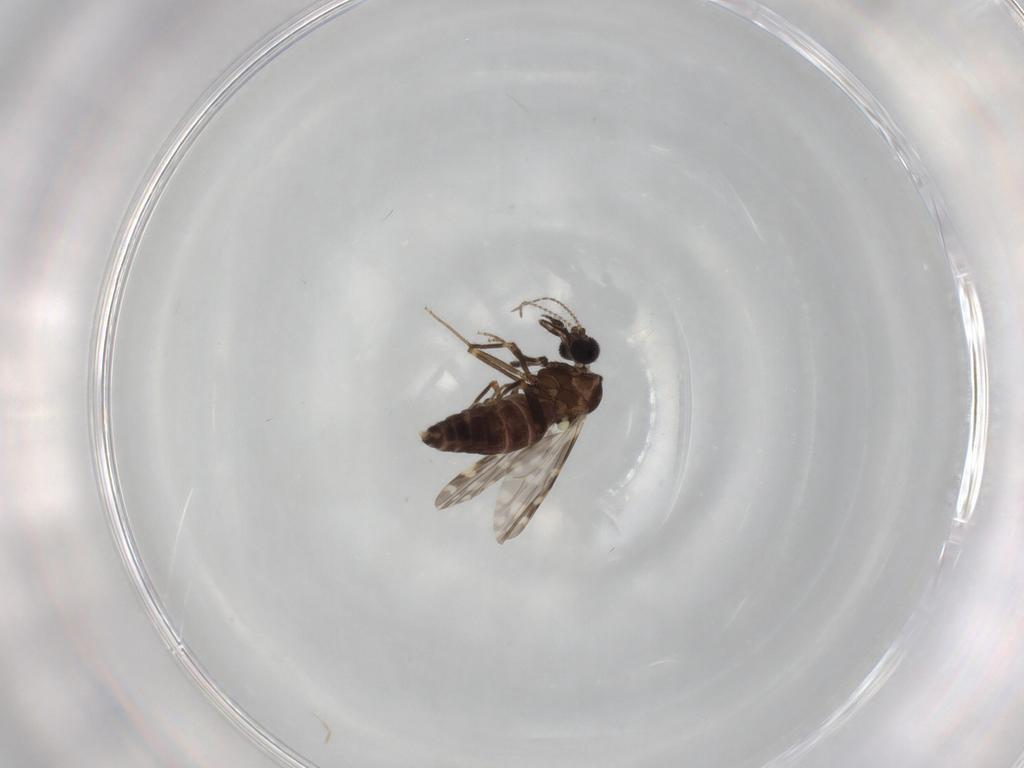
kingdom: Animalia
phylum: Arthropoda
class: Insecta
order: Diptera
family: Ceratopogonidae
